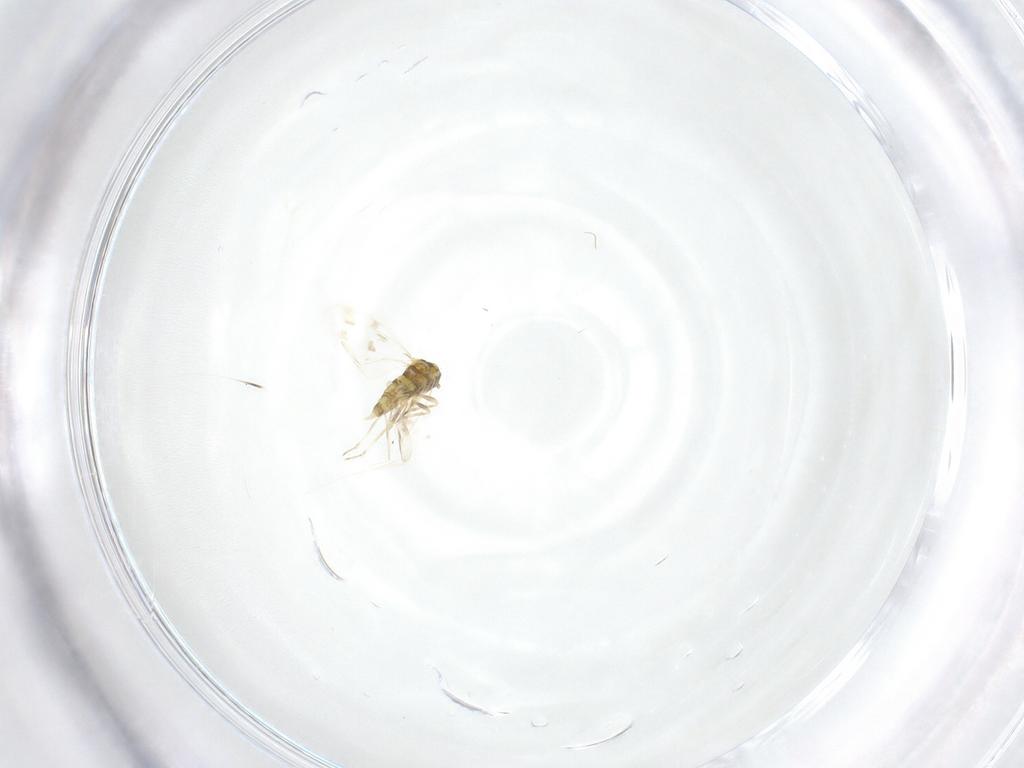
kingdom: Animalia
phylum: Arthropoda
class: Insecta
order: Hemiptera
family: Aleyrodidae
